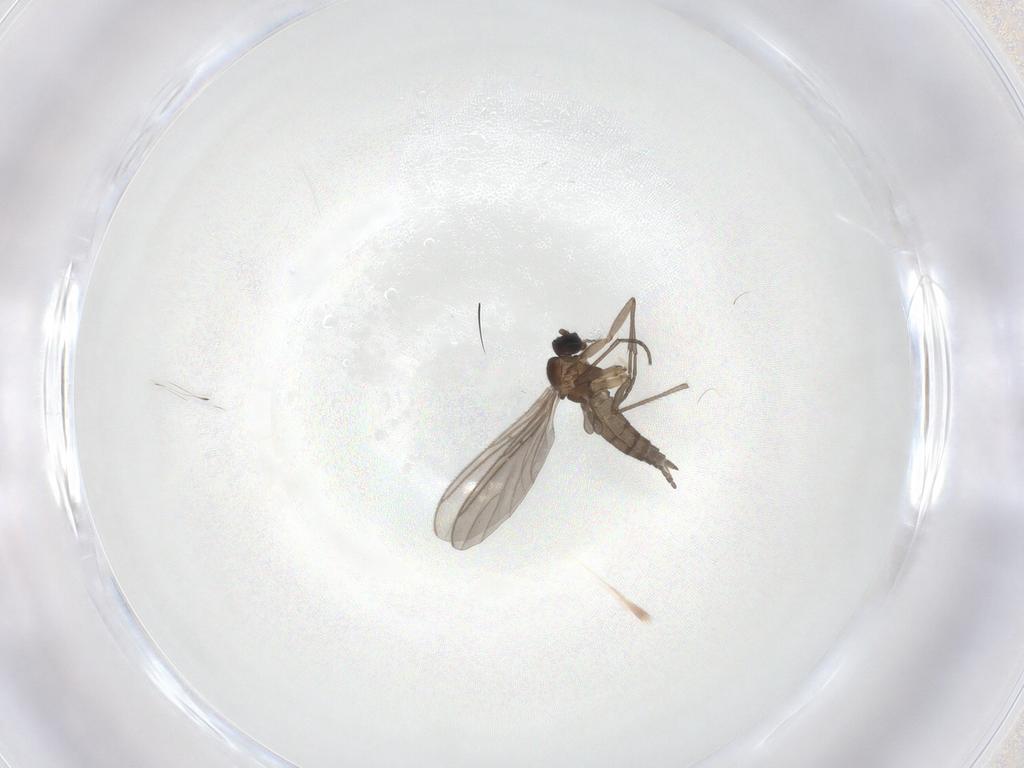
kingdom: Animalia
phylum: Arthropoda
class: Insecta
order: Diptera
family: Sciaridae
